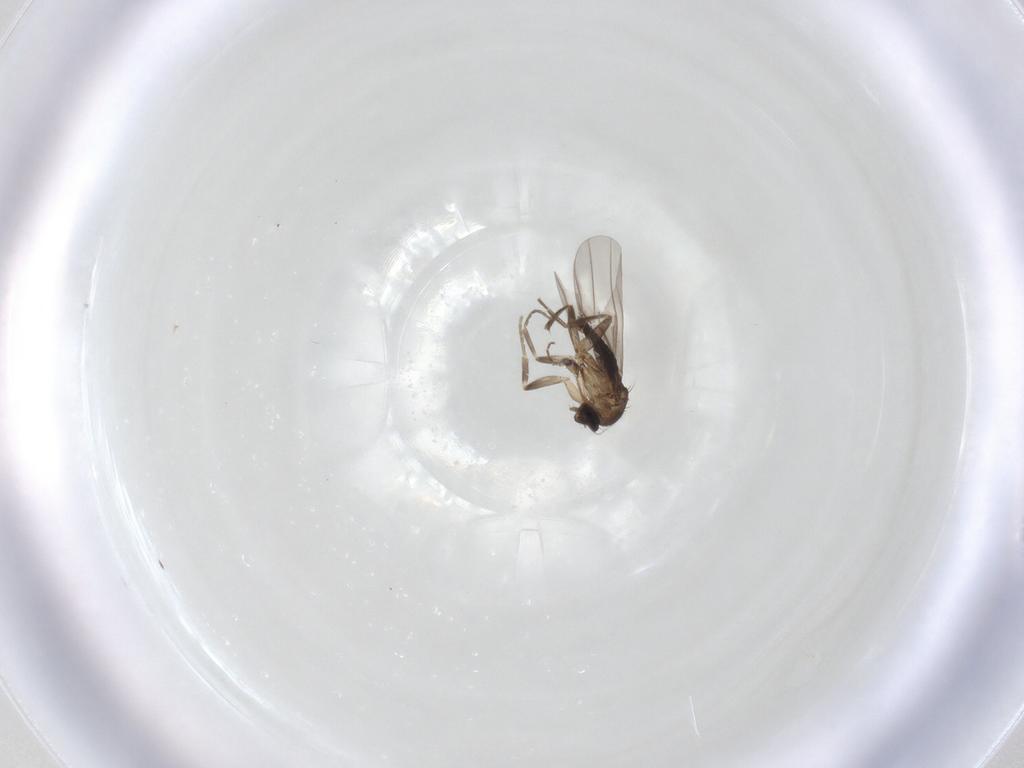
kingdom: Animalia
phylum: Arthropoda
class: Insecta
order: Diptera
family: Phoridae
